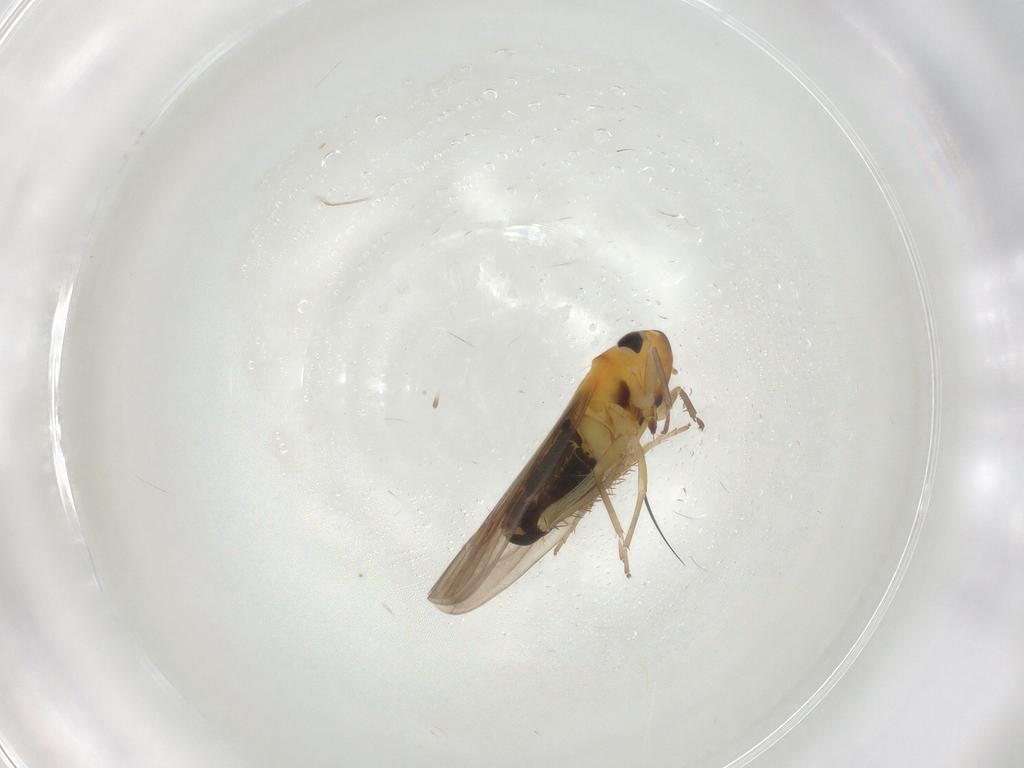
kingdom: Animalia
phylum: Arthropoda
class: Insecta
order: Hemiptera
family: Cicadellidae
